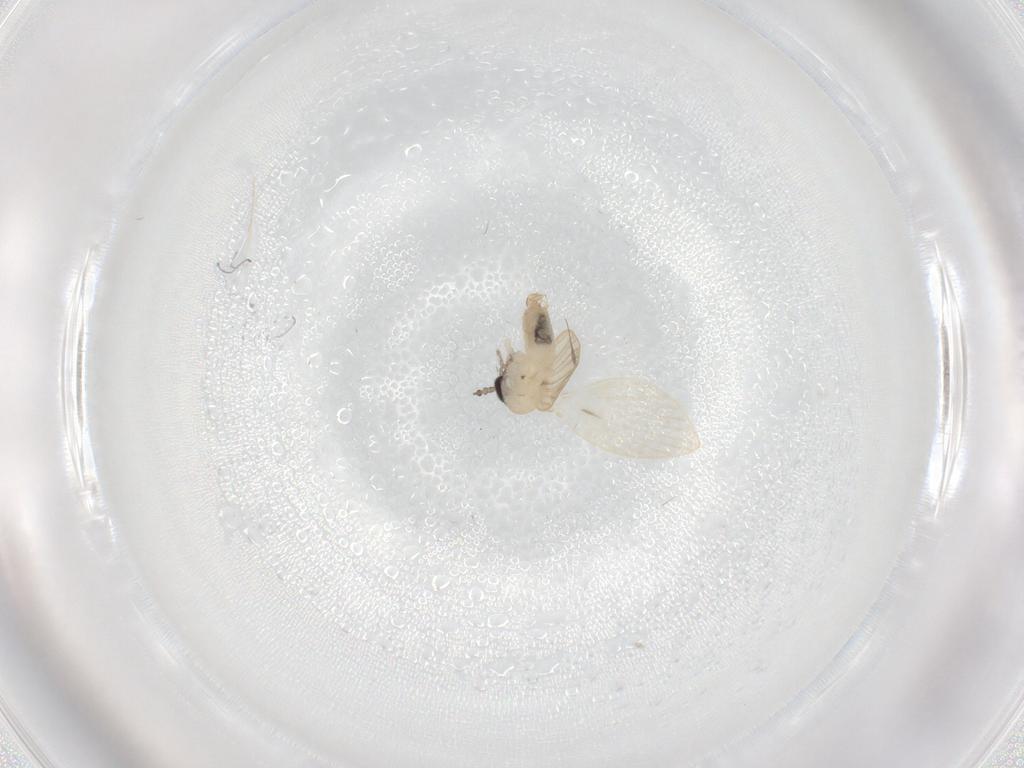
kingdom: Animalia
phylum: Arthropoda
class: Insecta
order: Diptera
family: Psychodidae
